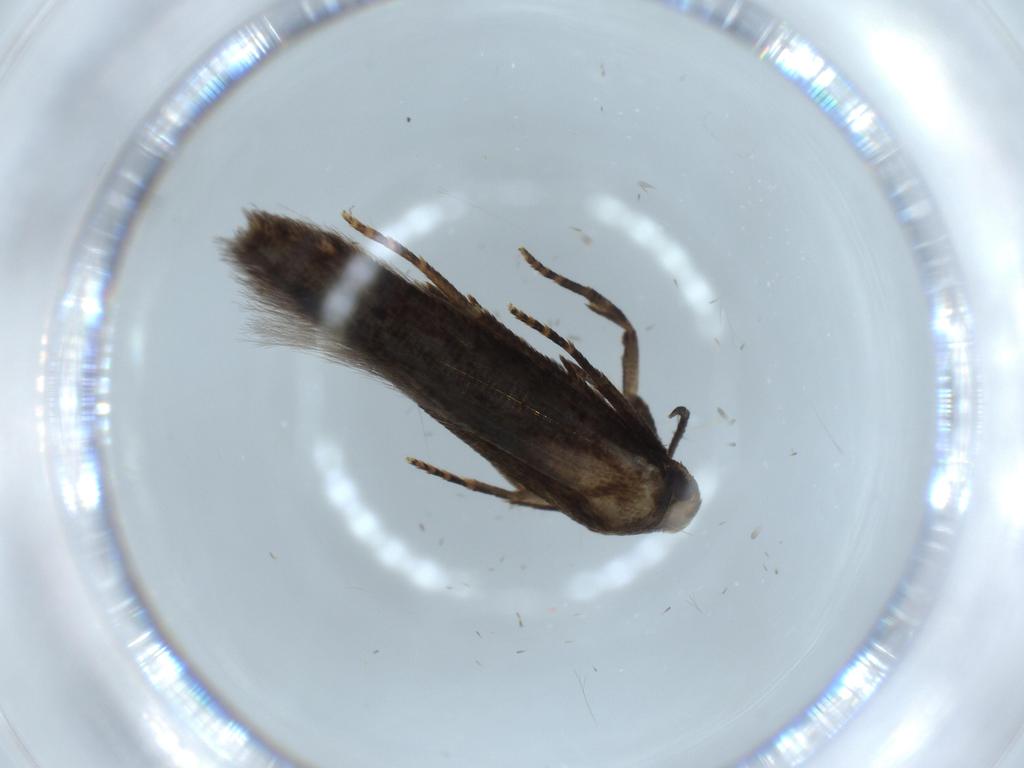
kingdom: Animalia
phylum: Arthropoda
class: Insecta
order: Lepidoptera
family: Autostichidae
